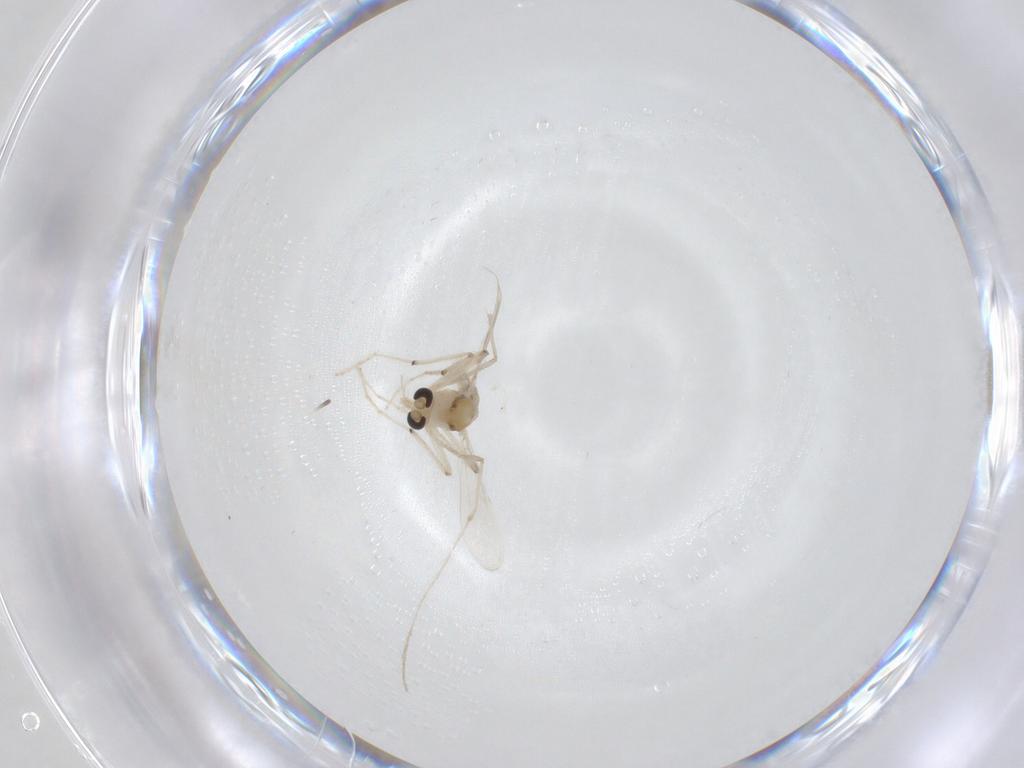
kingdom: Animalia
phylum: Arthropoda
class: Insecta
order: Diptera
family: Chironomidae
